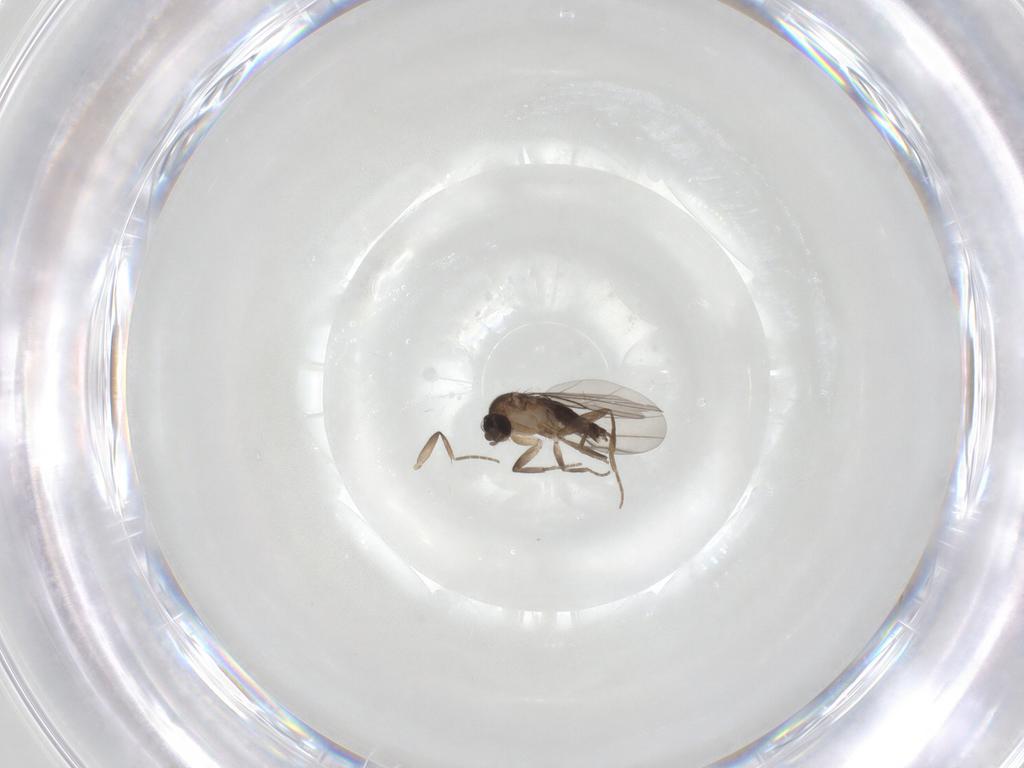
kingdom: Animalia
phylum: Arthropoda
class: Insecta
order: Diptera
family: Phoridae
